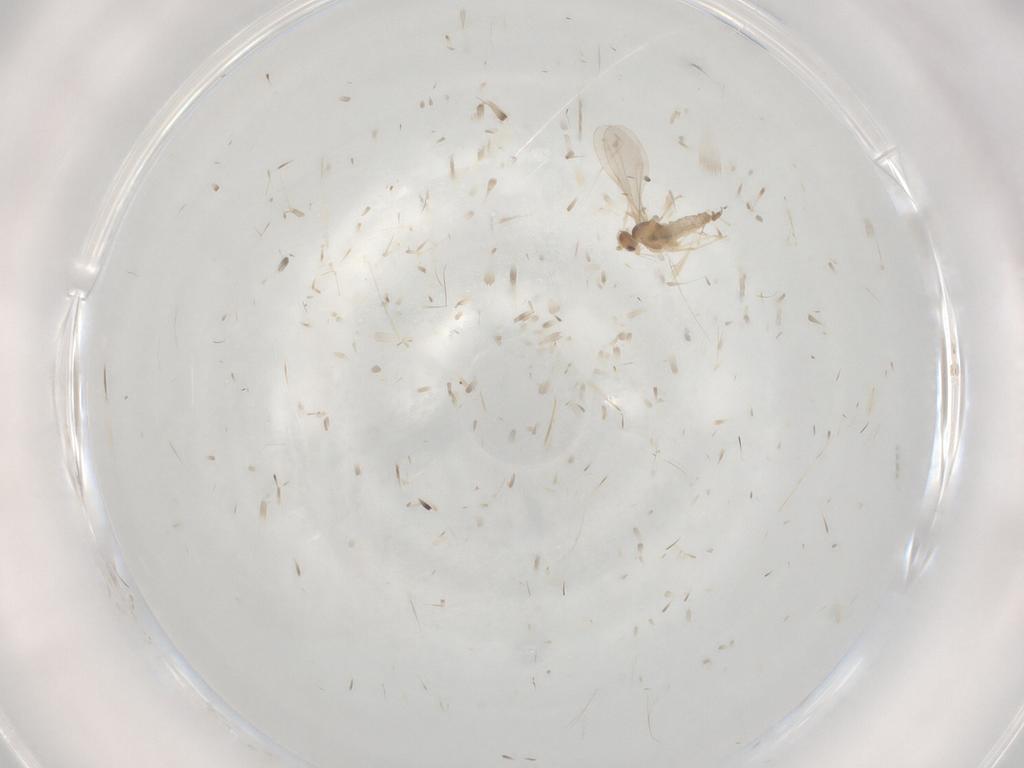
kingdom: Animalia
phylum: Arthropoda
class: Insecta
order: Diptera
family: Cecidomyiidae
